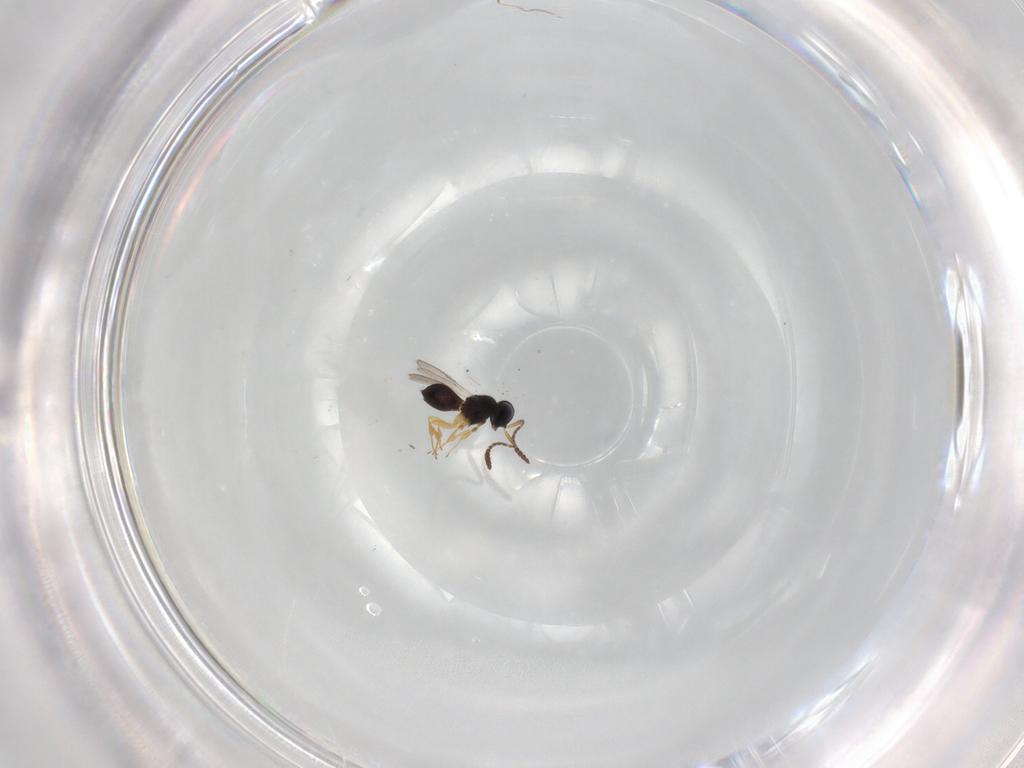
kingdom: Animalia
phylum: Arthropoda
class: Insecta
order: Hymenoptera
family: Scelionidae
